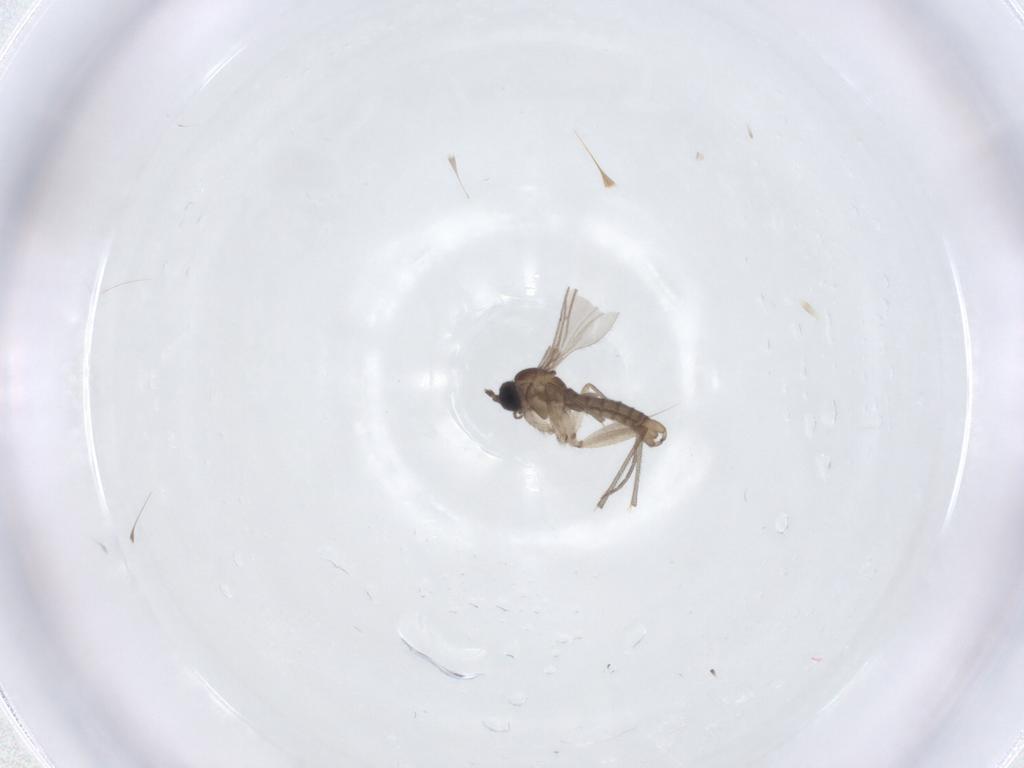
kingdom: Animalia
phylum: Arthropoda
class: Insecta
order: Diptera
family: Sciaridae
